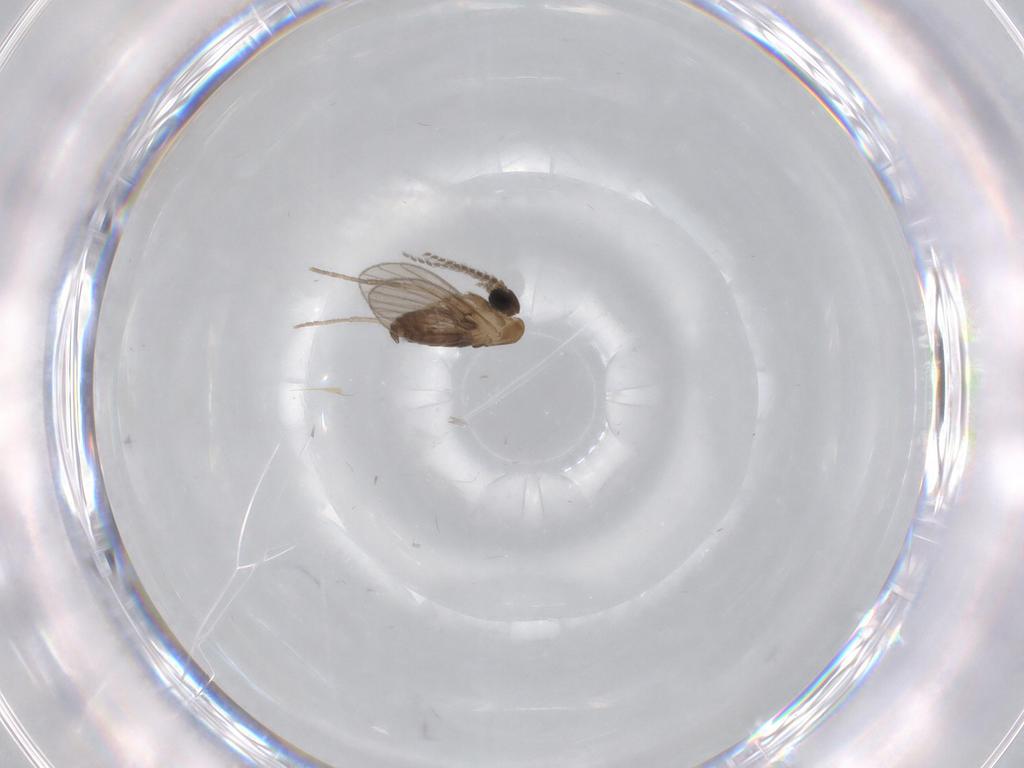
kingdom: Animalia
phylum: Arthropoda
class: Insecta
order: Diptera
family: Psychodidae
